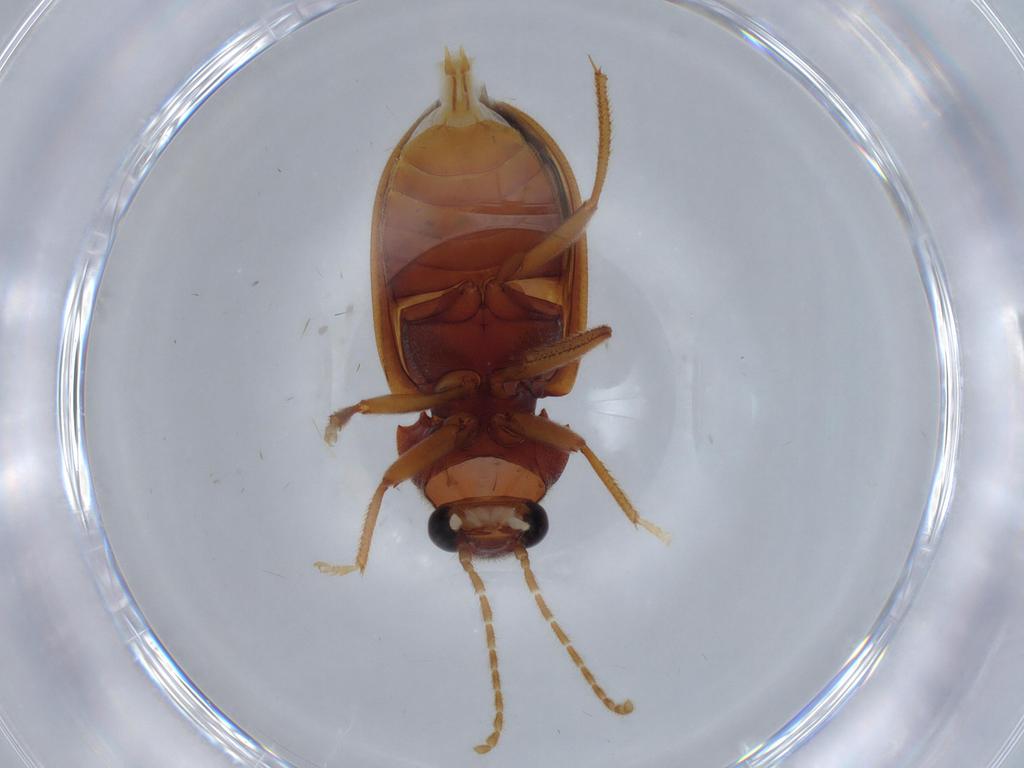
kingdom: Animalia
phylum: Arthropoda
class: Insecta
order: Coleoptera
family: Ptilodactylidae
